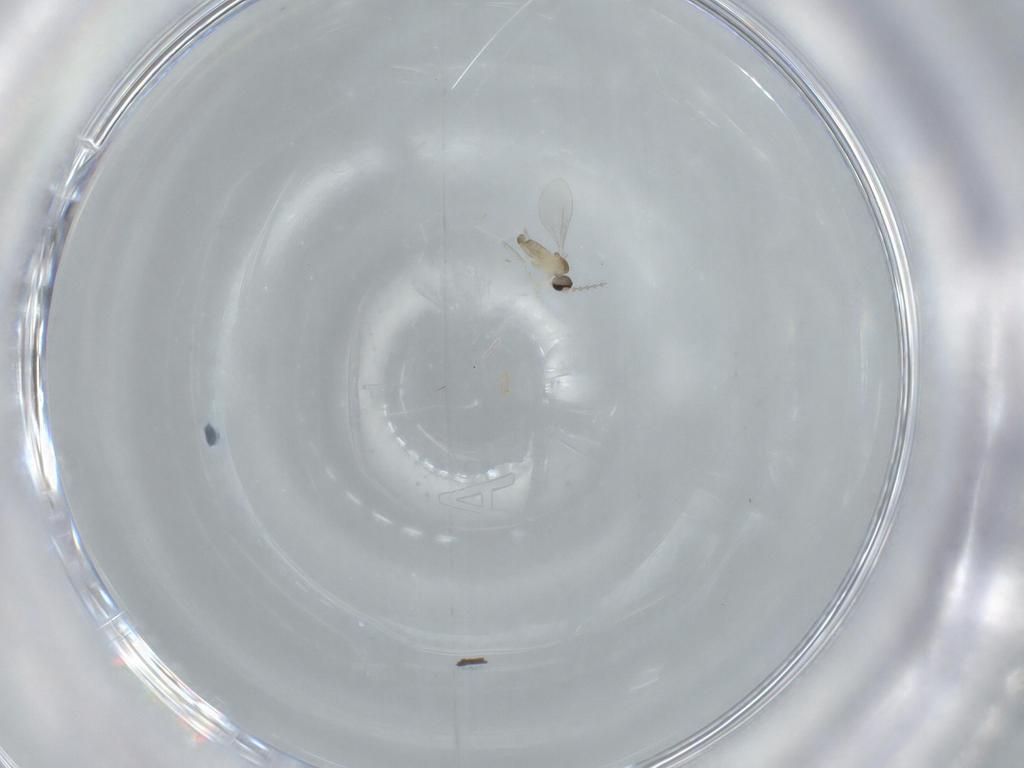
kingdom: Animalia
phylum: Arthropoda
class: Insecta
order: Diptera
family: Cecidomyiidae
